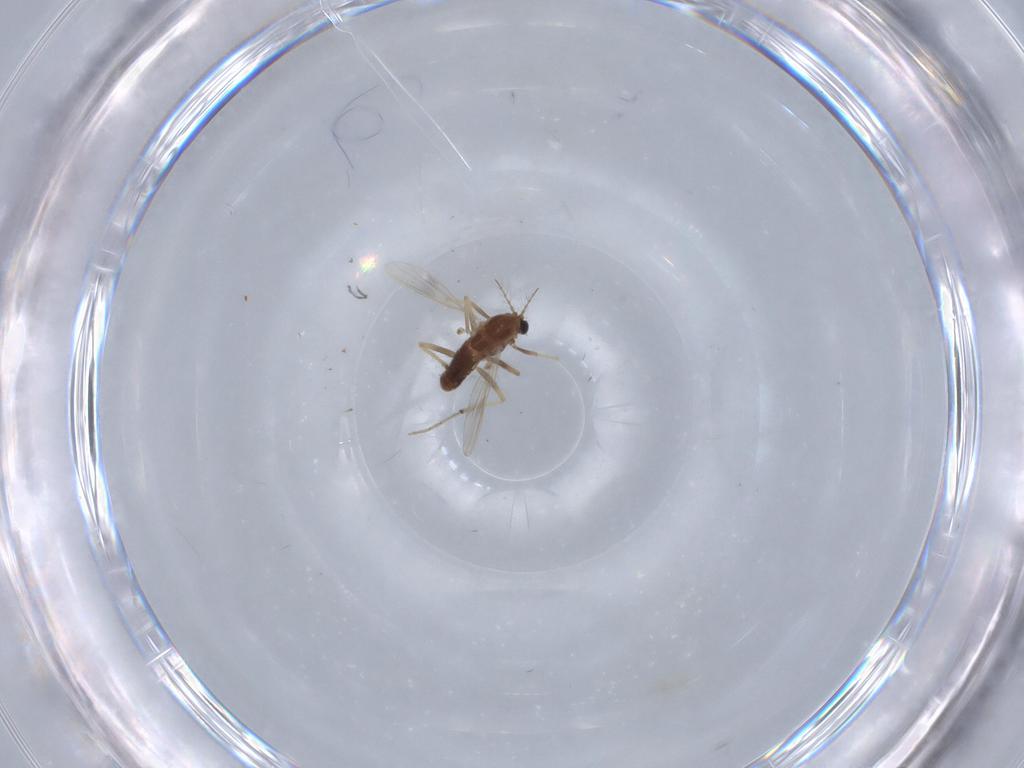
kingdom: Animalia
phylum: Arthropoda
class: Insecta
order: Diptera
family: Chironomidae
